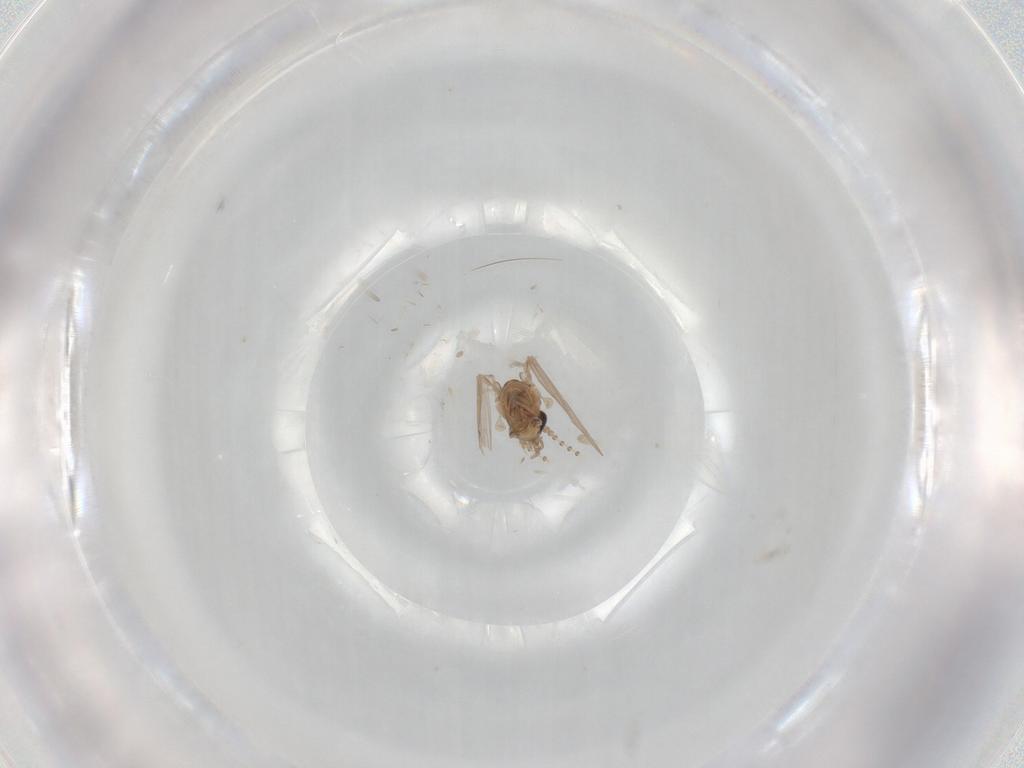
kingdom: Animalia
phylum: Arthropoda
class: Insecta
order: Diptera
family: Psychodidae
